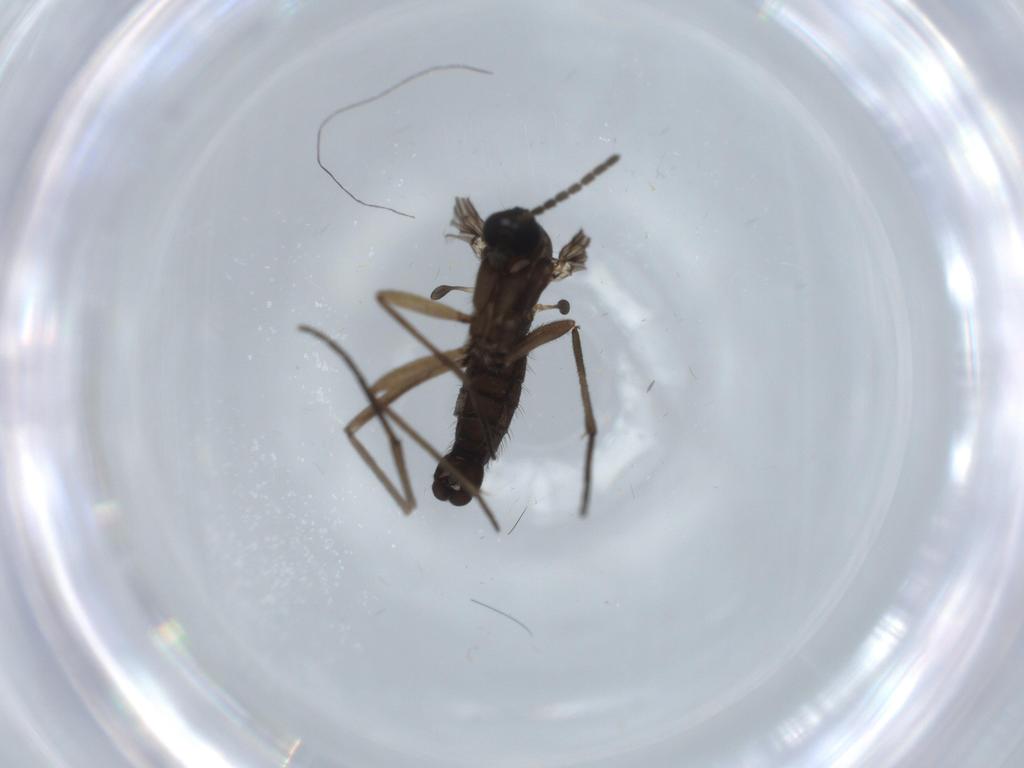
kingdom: Animalia
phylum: Arthropoda
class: Insecta
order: Diptera
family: Sciaridae
